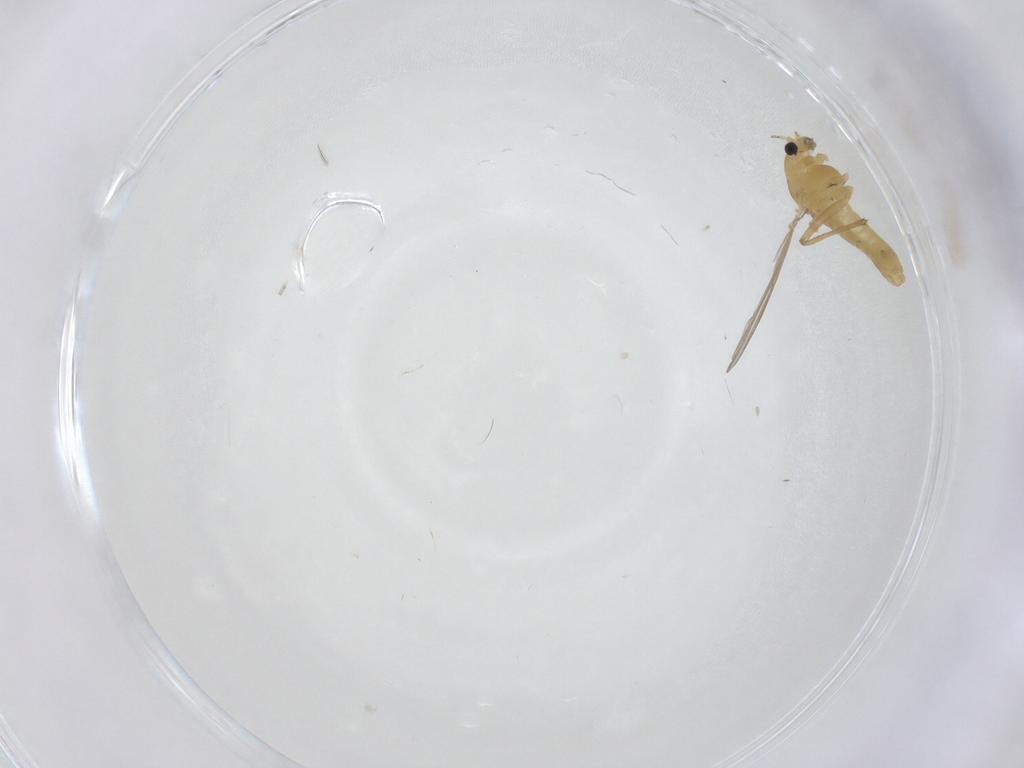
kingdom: Animalia
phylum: Arthropoda
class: Insecta
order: Diptera
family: Chironomidae
